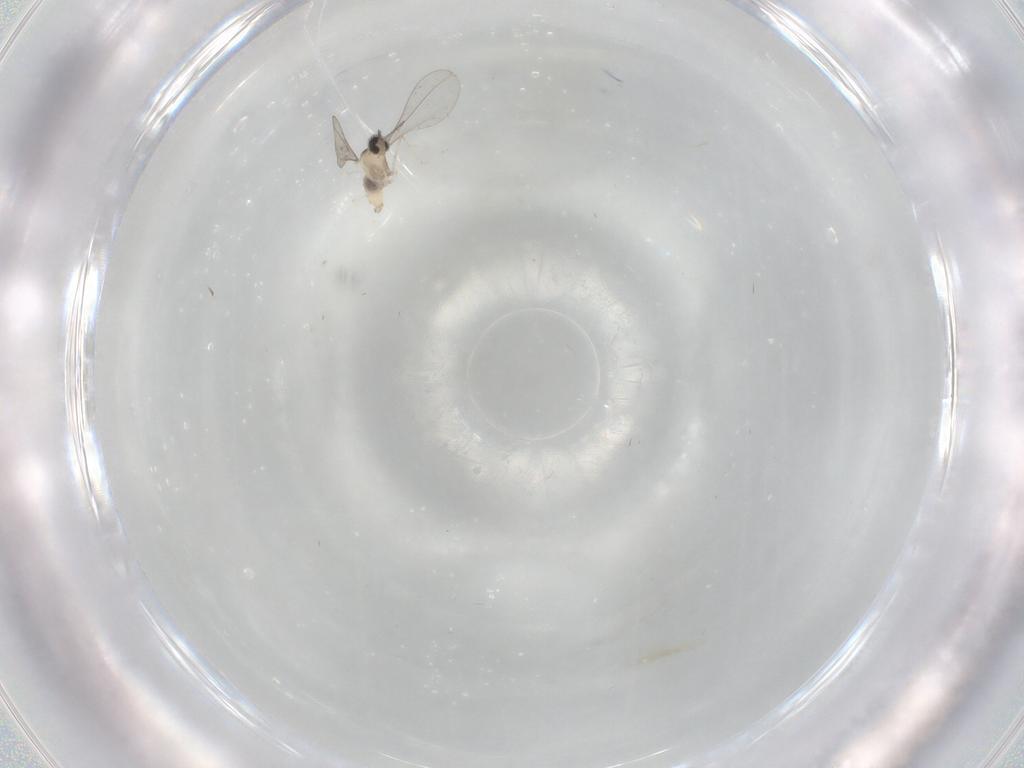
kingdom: Animalia
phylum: Arthropoda
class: Insecta
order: Diptera
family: Cecidomyiidae
